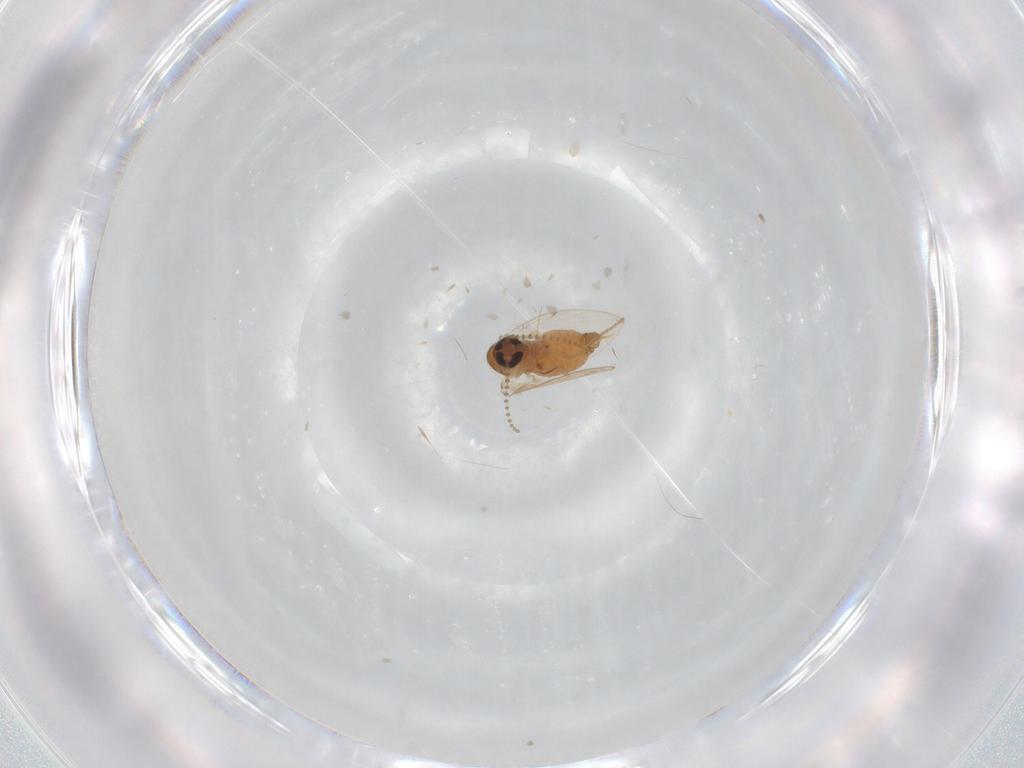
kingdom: Animalia
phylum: Arthropoda
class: Insecta
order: Diptera
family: Psychodidae
